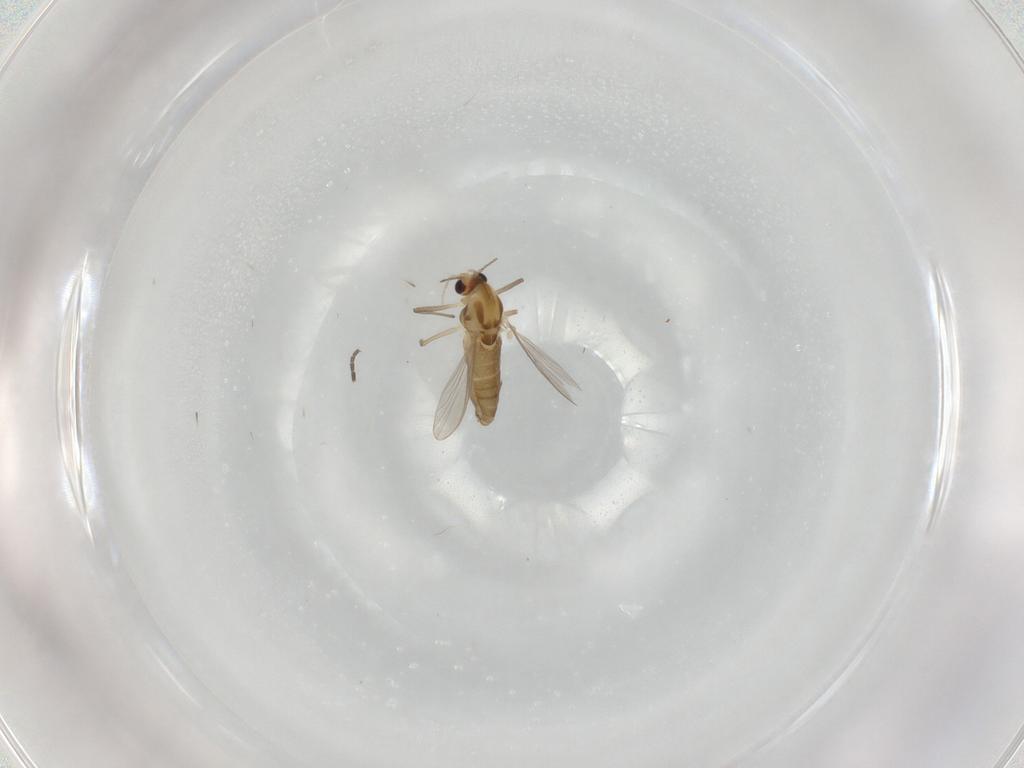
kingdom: Animalia
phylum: Arthropoda
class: Insecta
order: Diptera
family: Chironomidae
